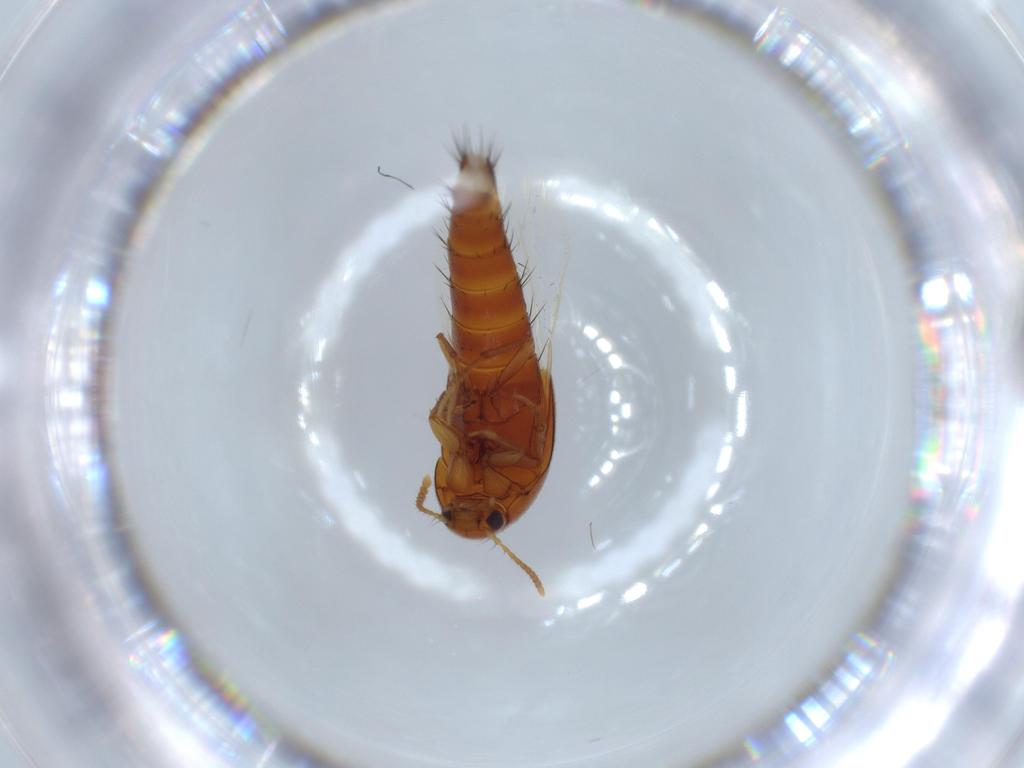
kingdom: Animalia
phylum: Arthropoda
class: Insecta
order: Coleoptera
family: Staphylinidae
